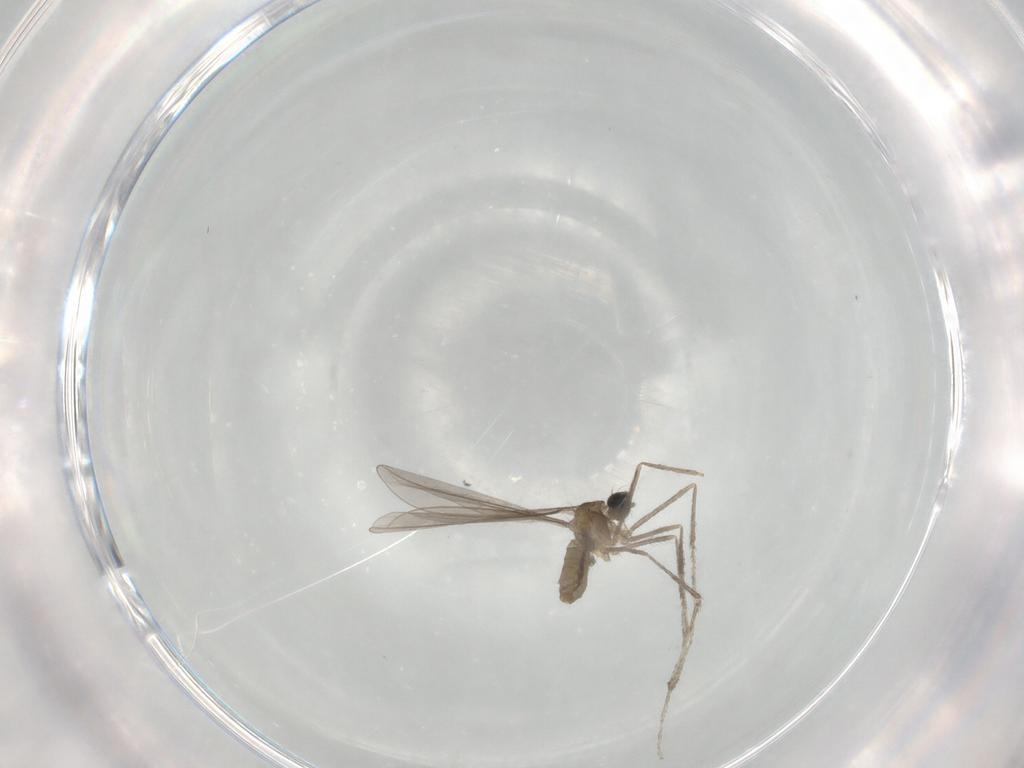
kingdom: Animalia
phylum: Arthropoda
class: Insecta
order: Diptera
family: Cecidomyiidae
